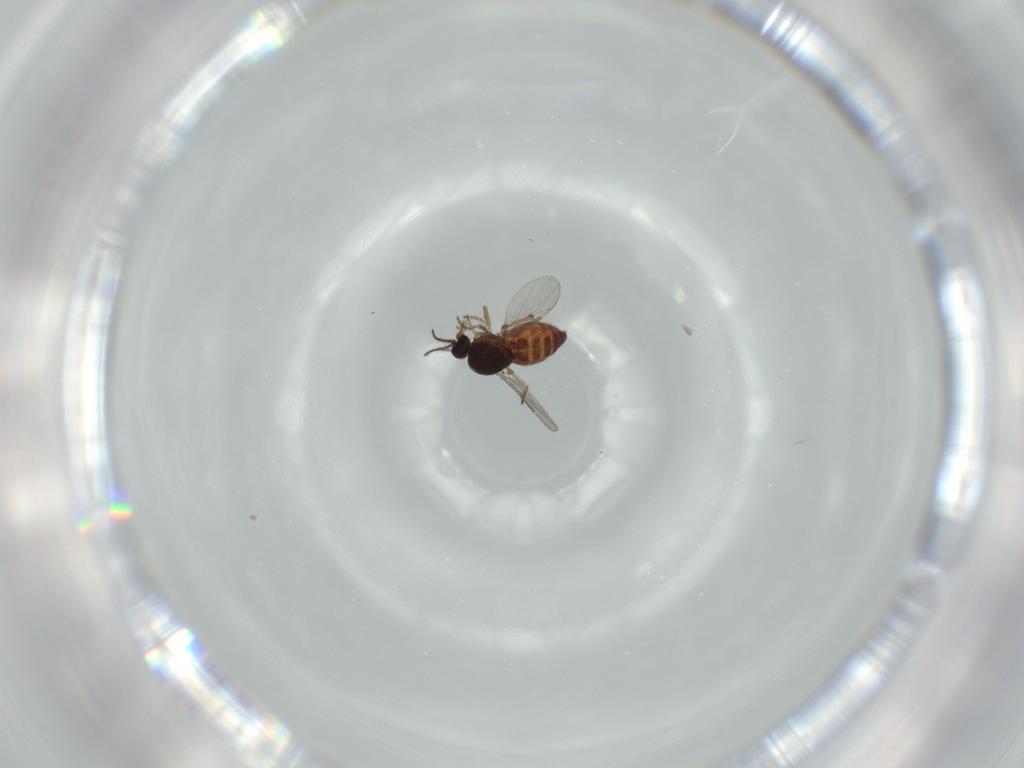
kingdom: Animalia
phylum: Arthropoda
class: Insecta
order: Diptera
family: Ceratopogonidae
